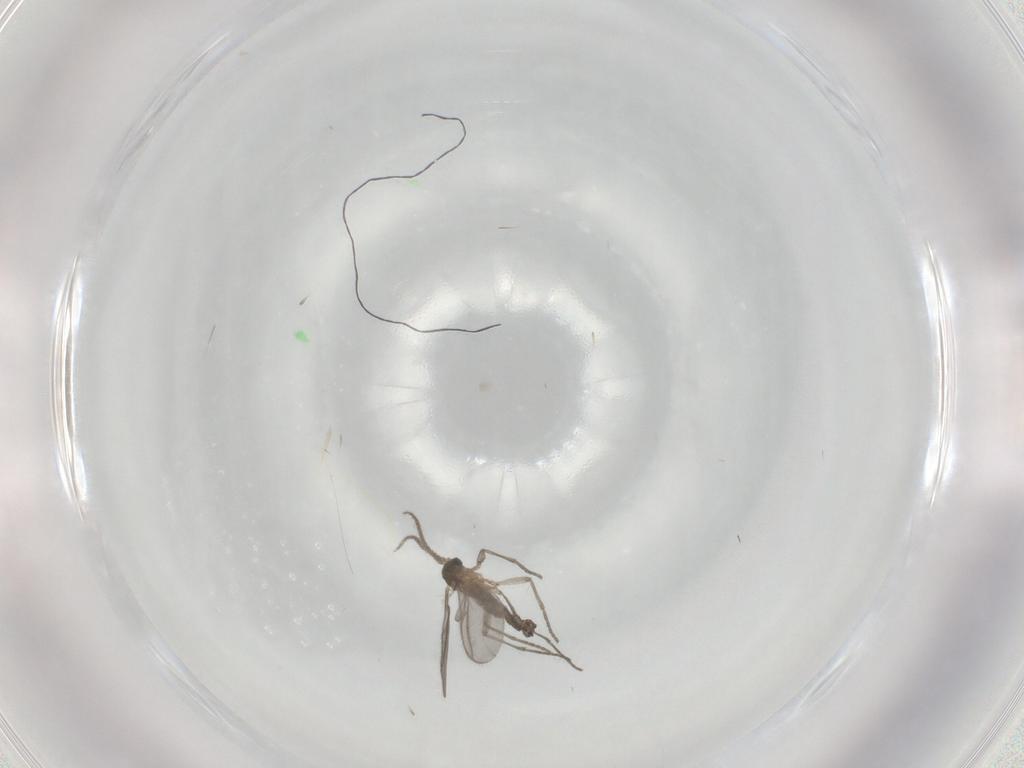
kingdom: Animalia
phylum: Arthropoda
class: Insecta
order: Diptera
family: Sciaridae
